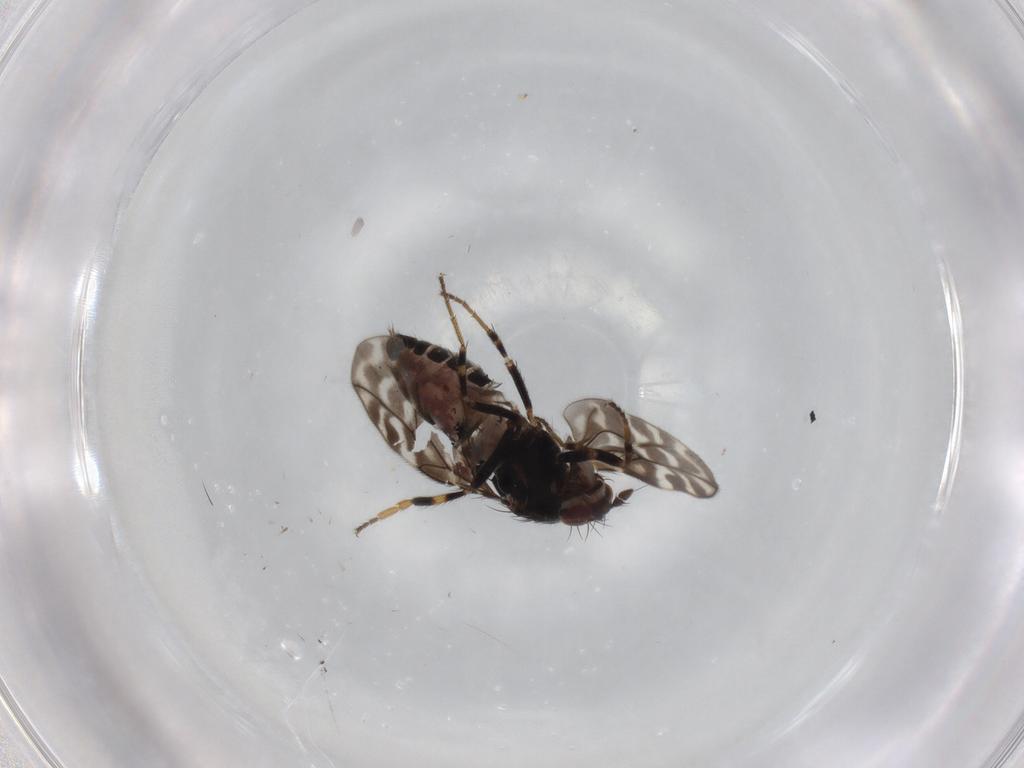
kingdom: Animalia
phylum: Arthropoda
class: Insecta
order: Diptera
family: Sphaeroceridae
